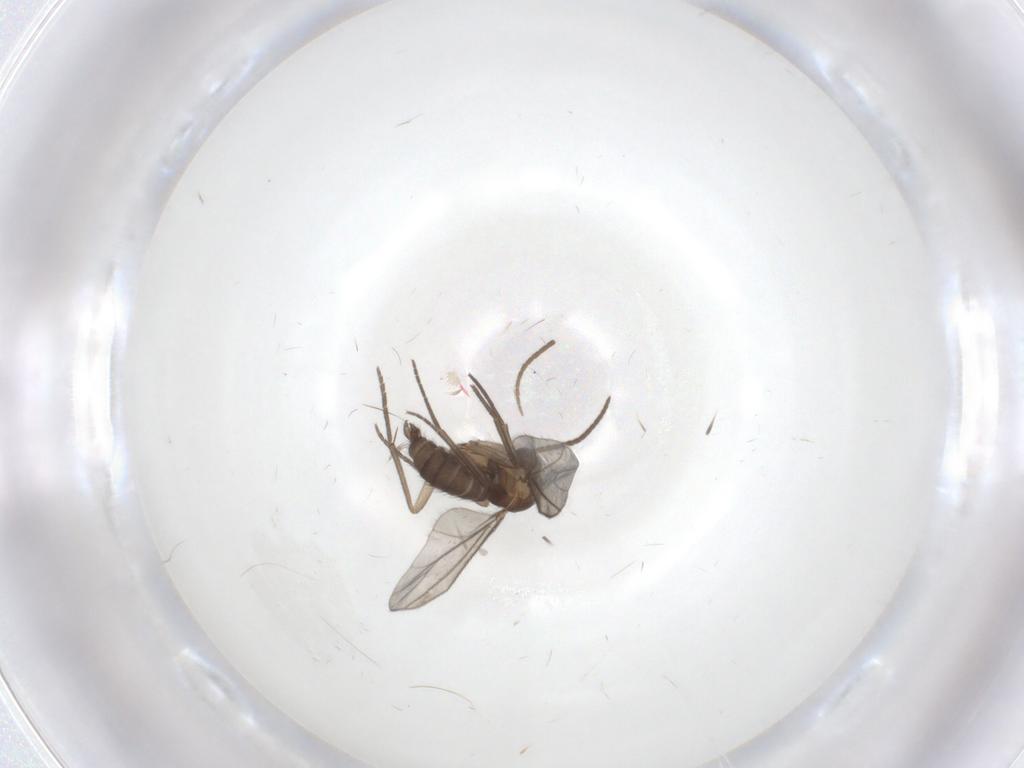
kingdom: Animalia
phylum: Arthropoda
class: Insecta
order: Diptera
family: Sciaridae
